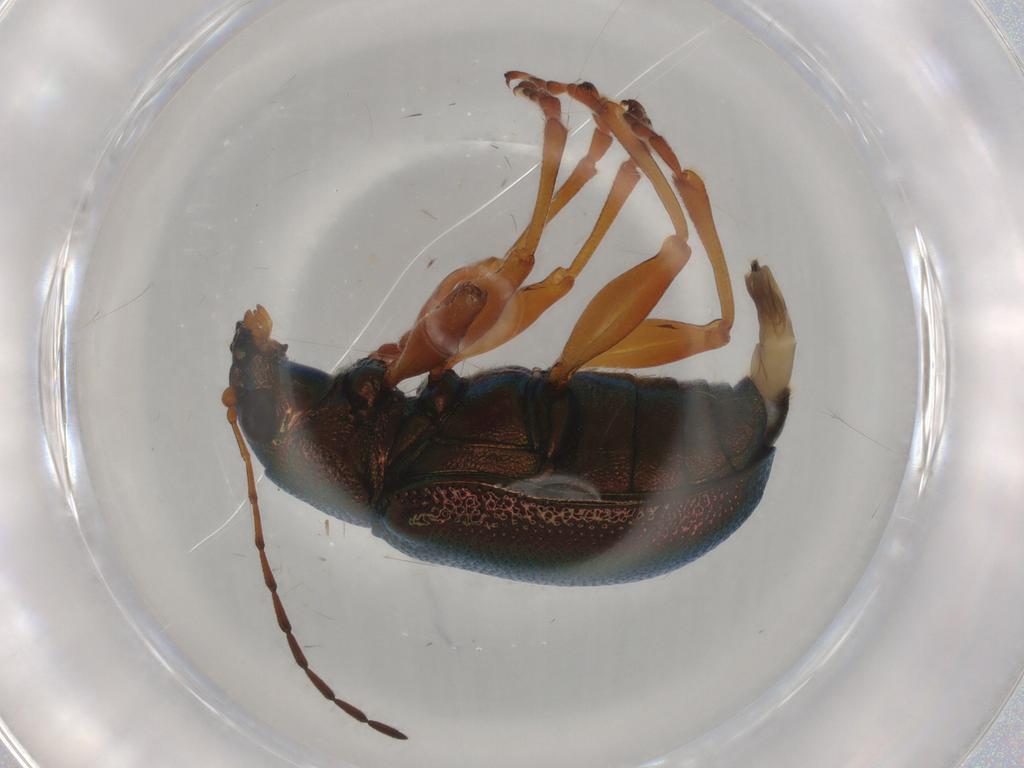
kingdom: Animalia
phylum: Arthropoda
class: Insecta
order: Coleoptera
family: Chrysomelidae
